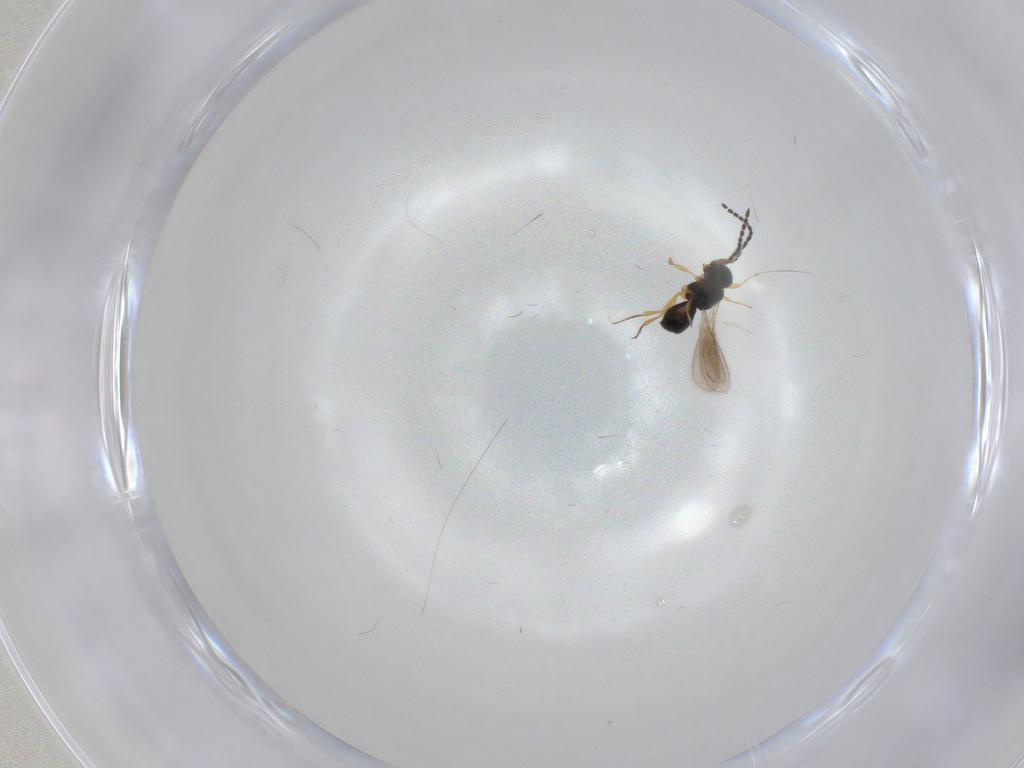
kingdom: Animalia
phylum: Arthropoda
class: Insecta
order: Hymenoptera
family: Scelionidae
